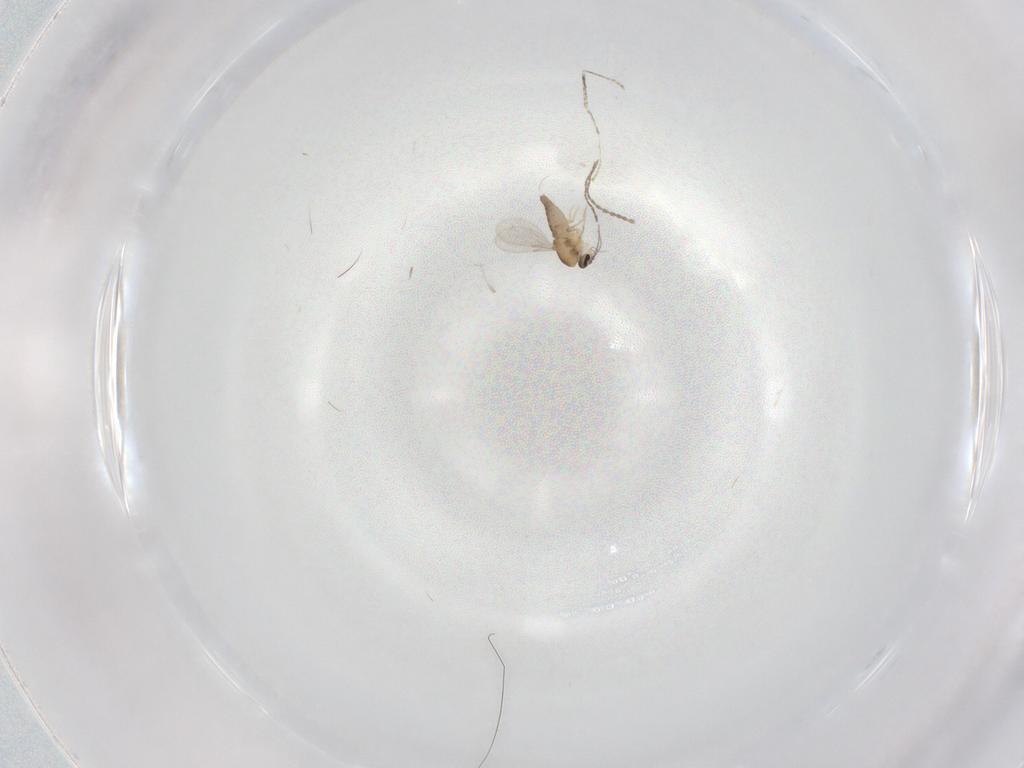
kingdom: Animalia
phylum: Arthropoda
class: Insecta
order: Diptera
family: Ceratopogonidae
